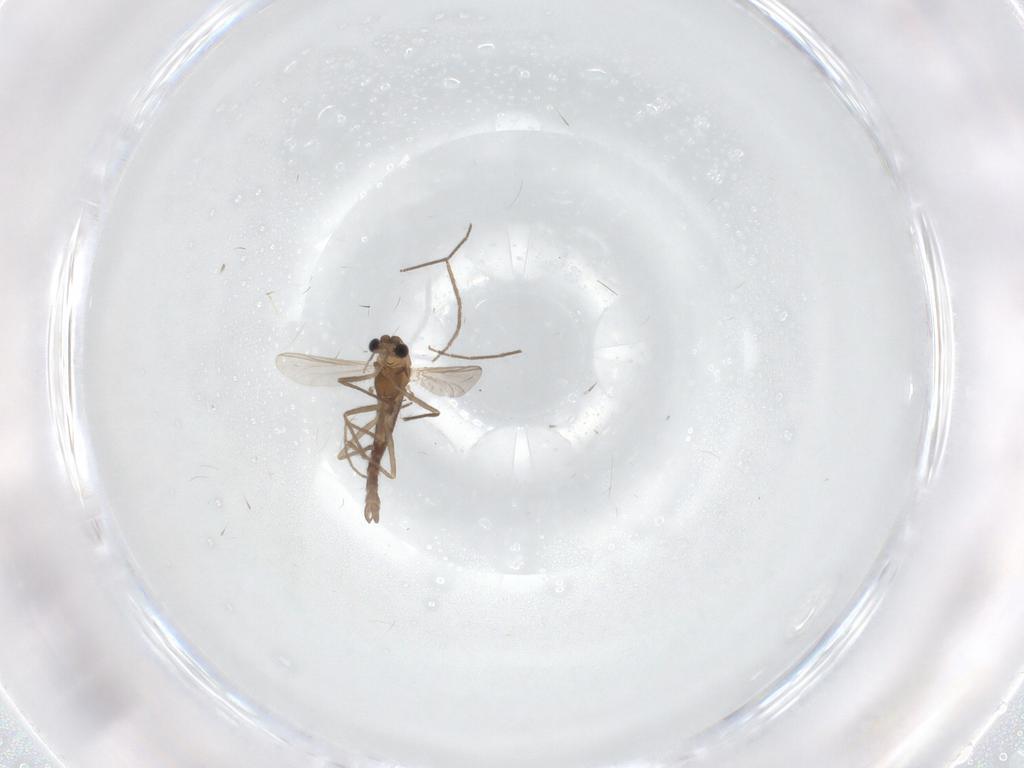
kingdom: Animalia
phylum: Arthropoda
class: Insecta
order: Diptera
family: Chironomidae
